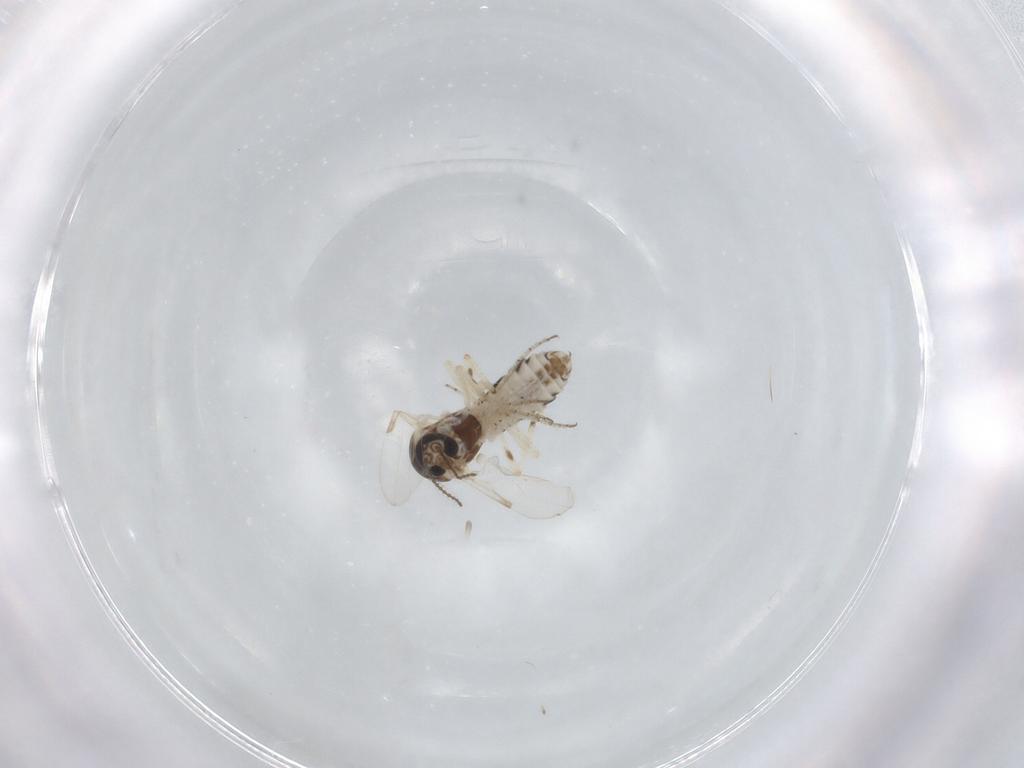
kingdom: Animalia
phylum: Arthropoda
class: Insecta
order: Diptera
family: Ceratopogonidae
